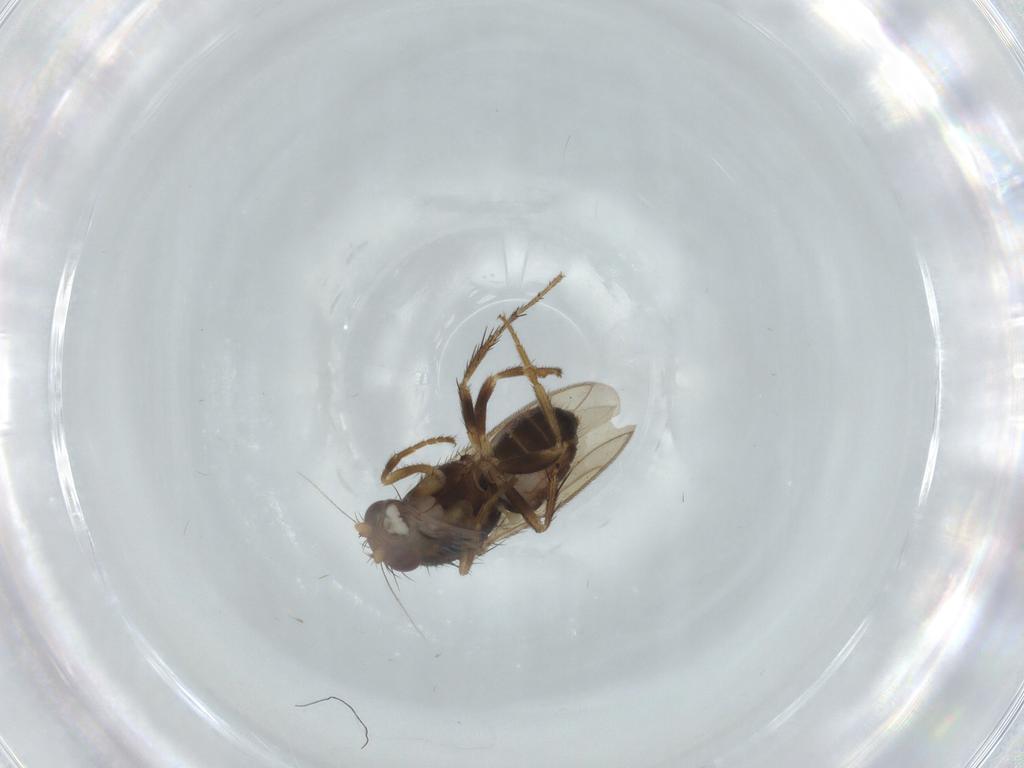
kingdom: Animalia
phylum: Arthropoda
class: Insecta
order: Diptera
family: Sphaeroceridae
